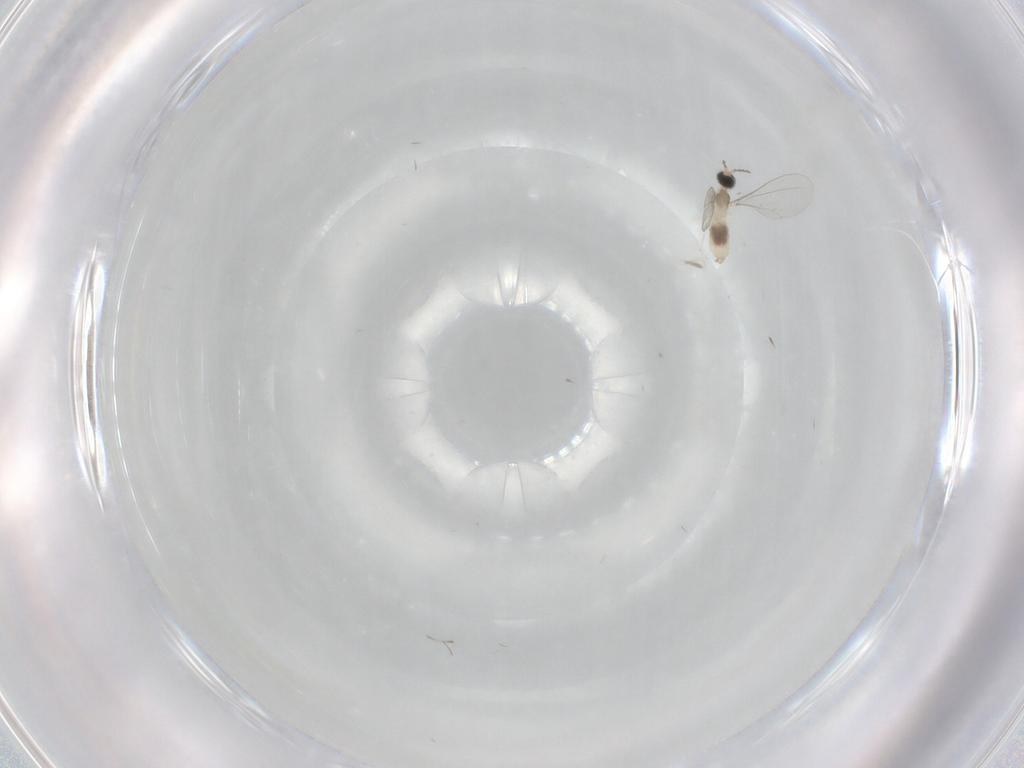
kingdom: Animalia
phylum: Arthropoda
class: Insecta
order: Diptera
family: Cecidomyiidae
